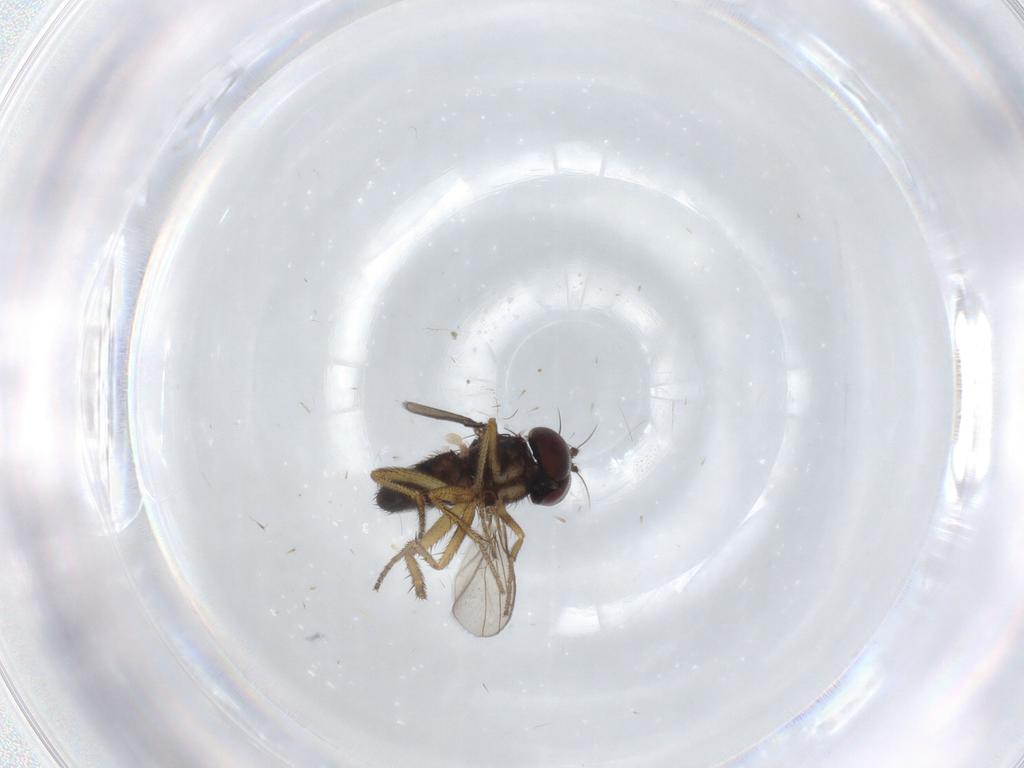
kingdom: Animalia
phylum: Arthropoda
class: Insecta
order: Diptera
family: Dolichopodidae
